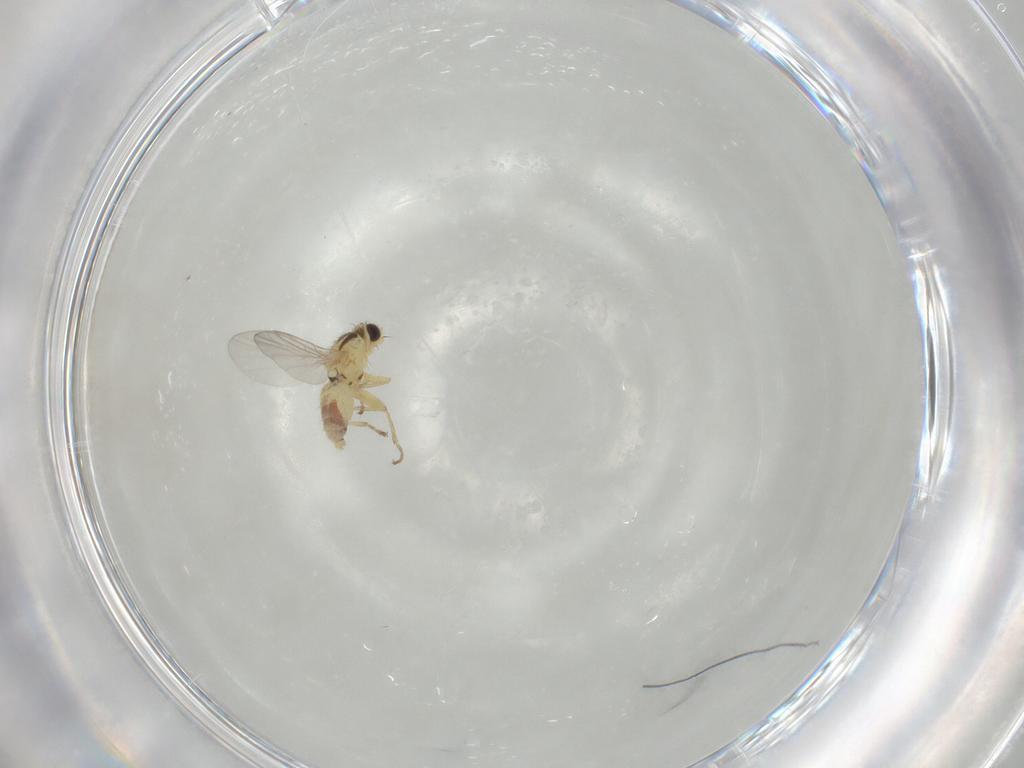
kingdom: Animalia
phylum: Arthropoda
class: Insecta
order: Diptera
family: Agromyzidae
